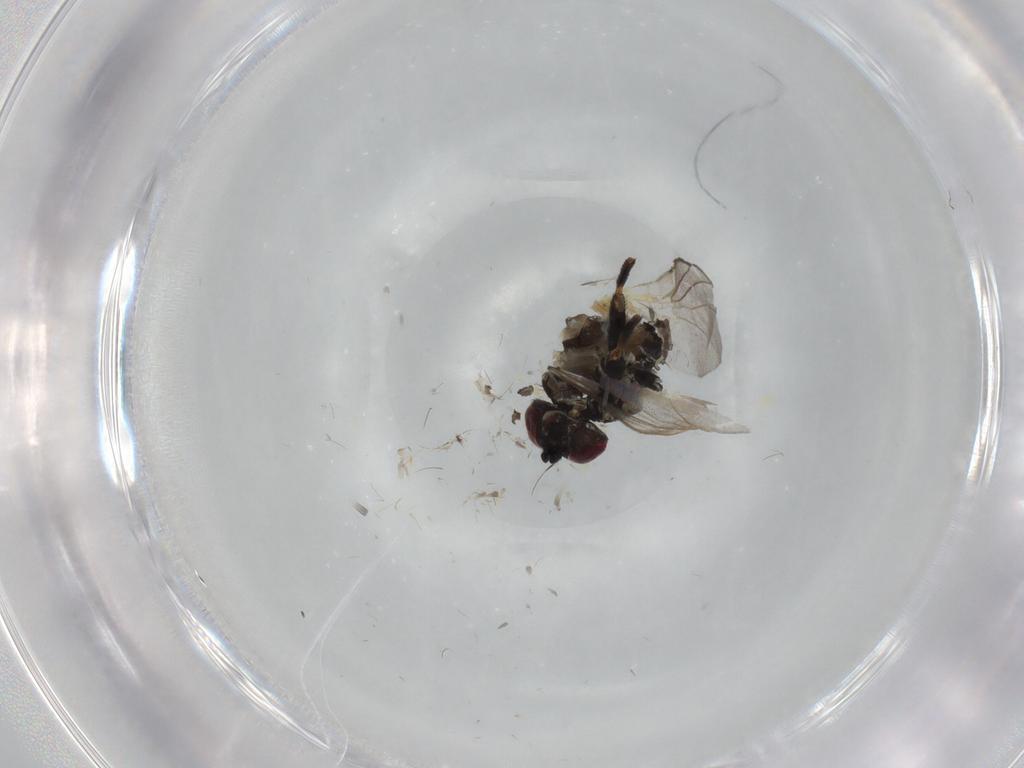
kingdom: Animalia
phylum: Arthropoda
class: Insecta
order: Diptera
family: Agromyzidae
